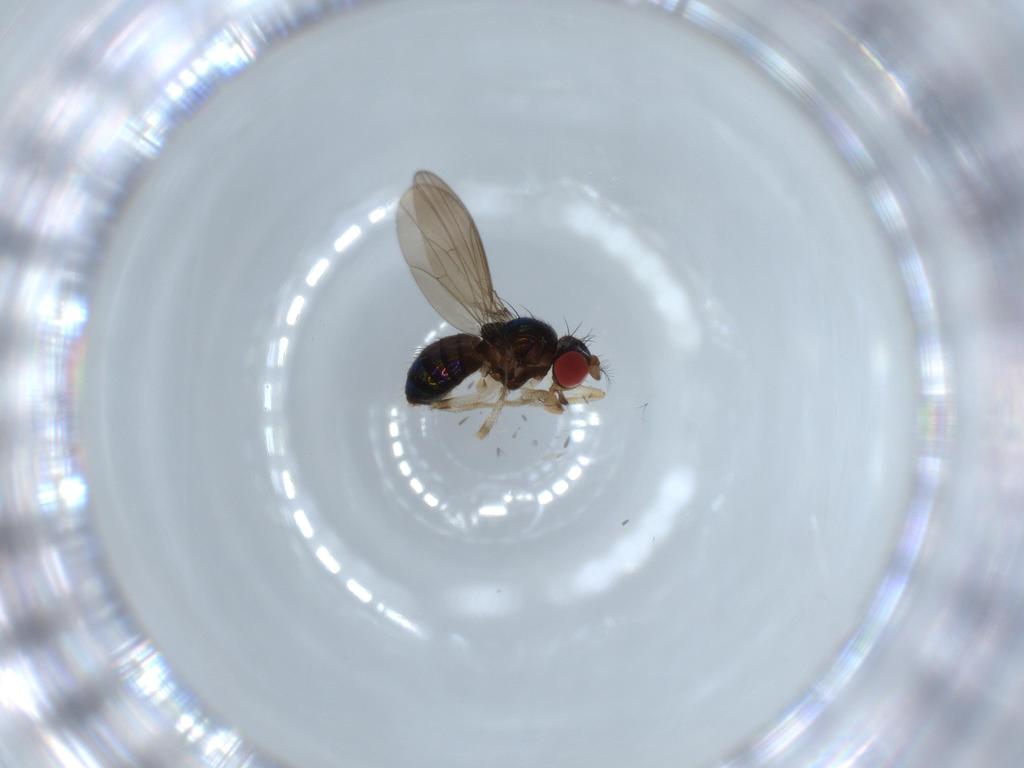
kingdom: Animalia
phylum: Arthropoda
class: Insecta
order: Diptera
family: Drosophilidae
